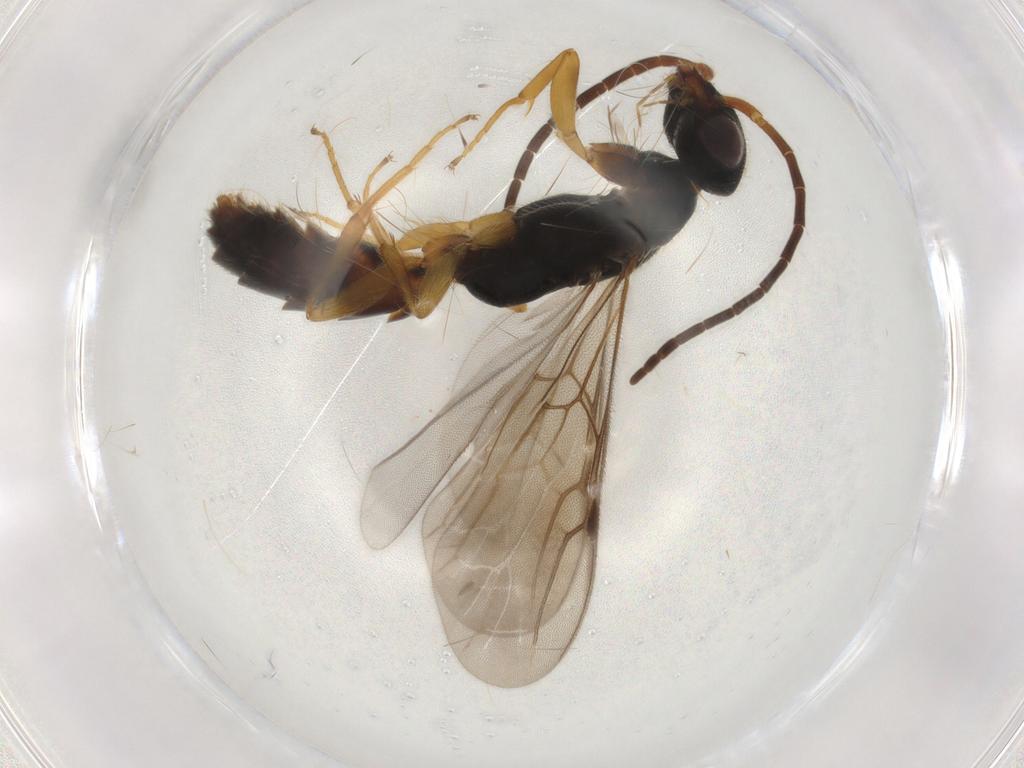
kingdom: Animalia
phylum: Arthropoda
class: Insecta
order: Hymenoptera
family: Bethylidae
